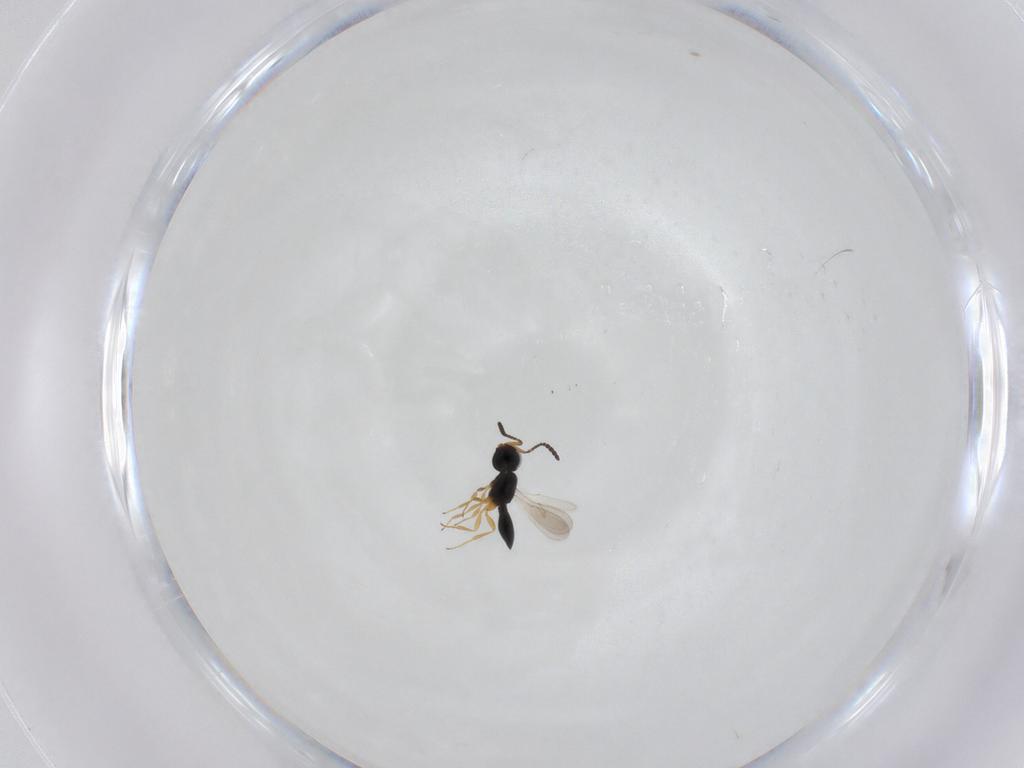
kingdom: Animalia
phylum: Arthropoda
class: Insecta
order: Hymenoptera
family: Scelionidae
